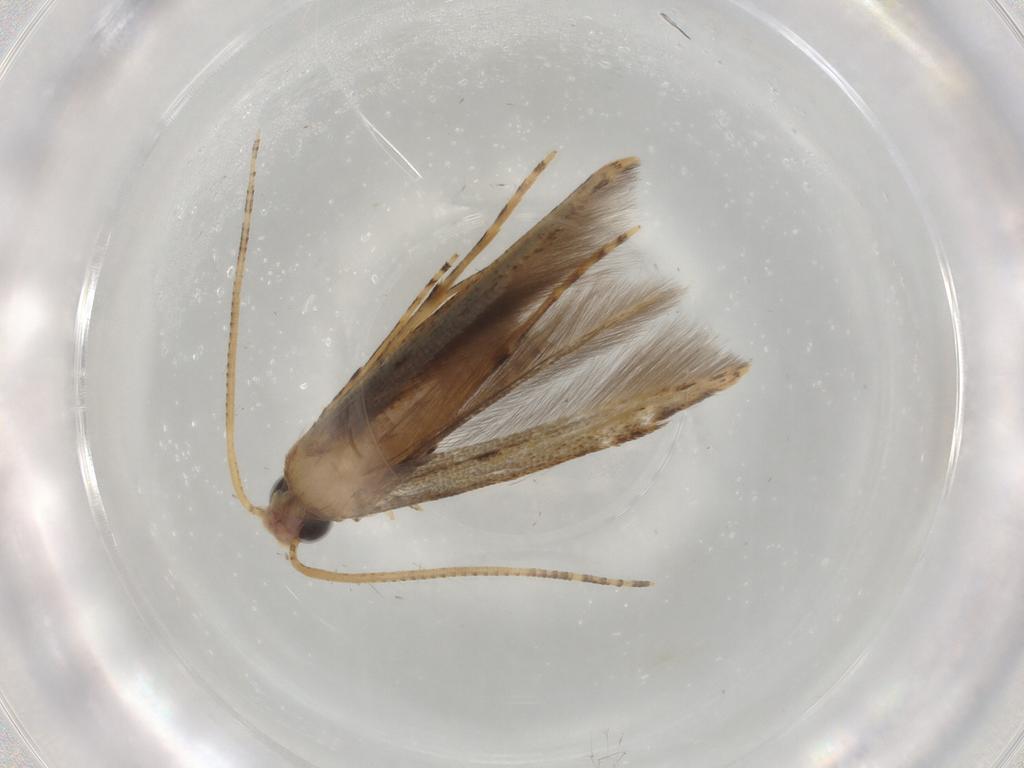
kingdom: Animalia
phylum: Arthropoda
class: Insecta
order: Lepidoptera
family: Batrachedridae
